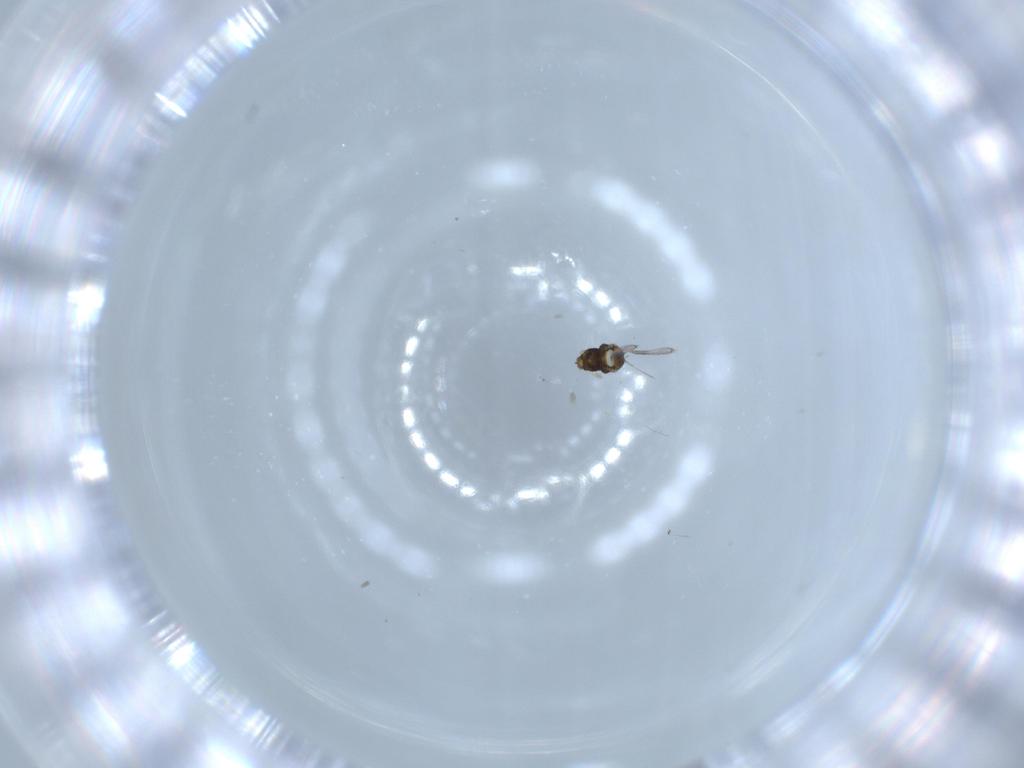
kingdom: Animalia
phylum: Arthropoda
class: Insecta
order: Hymenoptera
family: Aphelinidae
